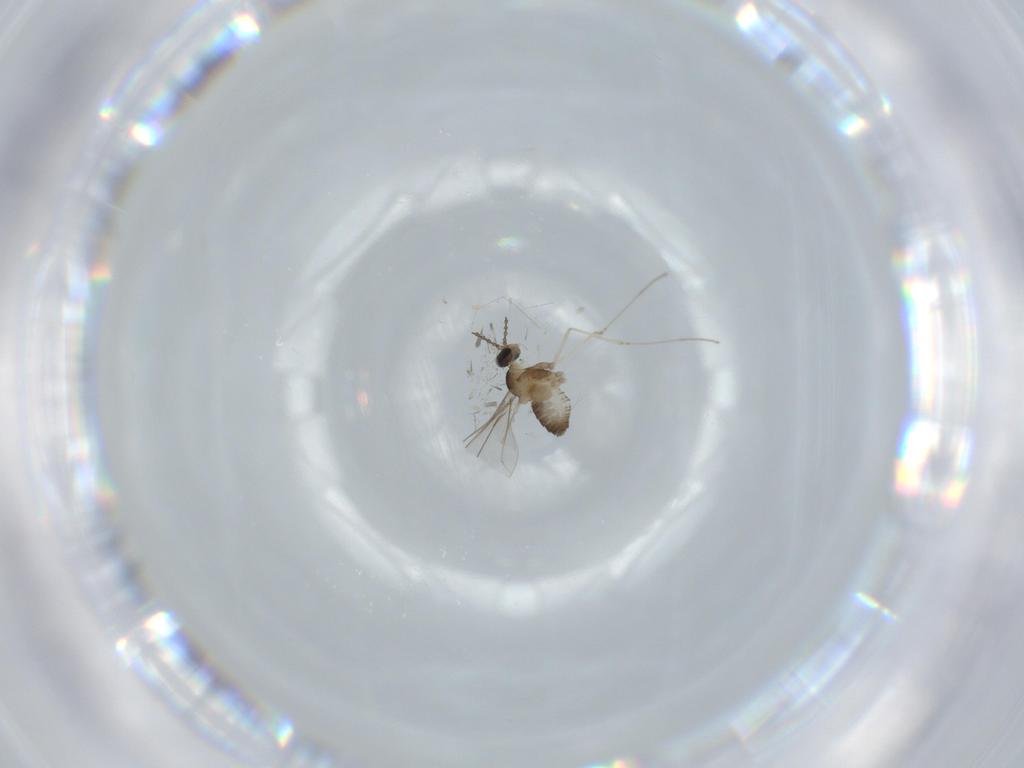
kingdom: Animalia
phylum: Arthropoda
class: Insecta
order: Diptera
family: Cecidomyiidae
